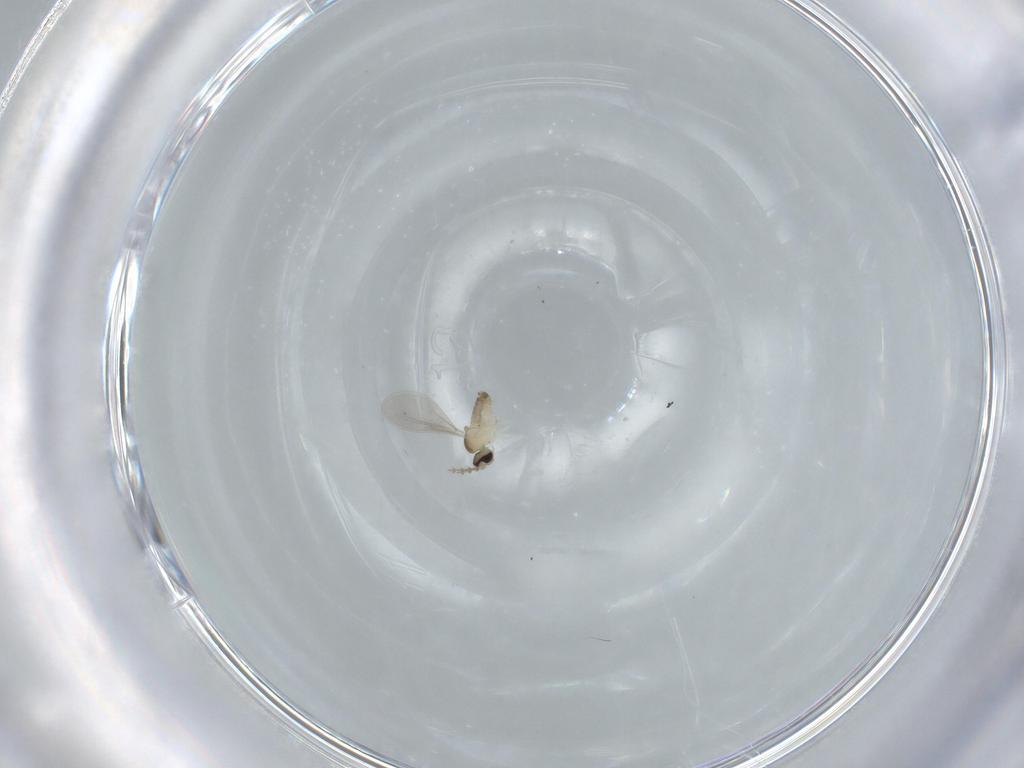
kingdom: Animalia
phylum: Arthropoda
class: Insecta
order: Diptera
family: Cecidomyiidae
